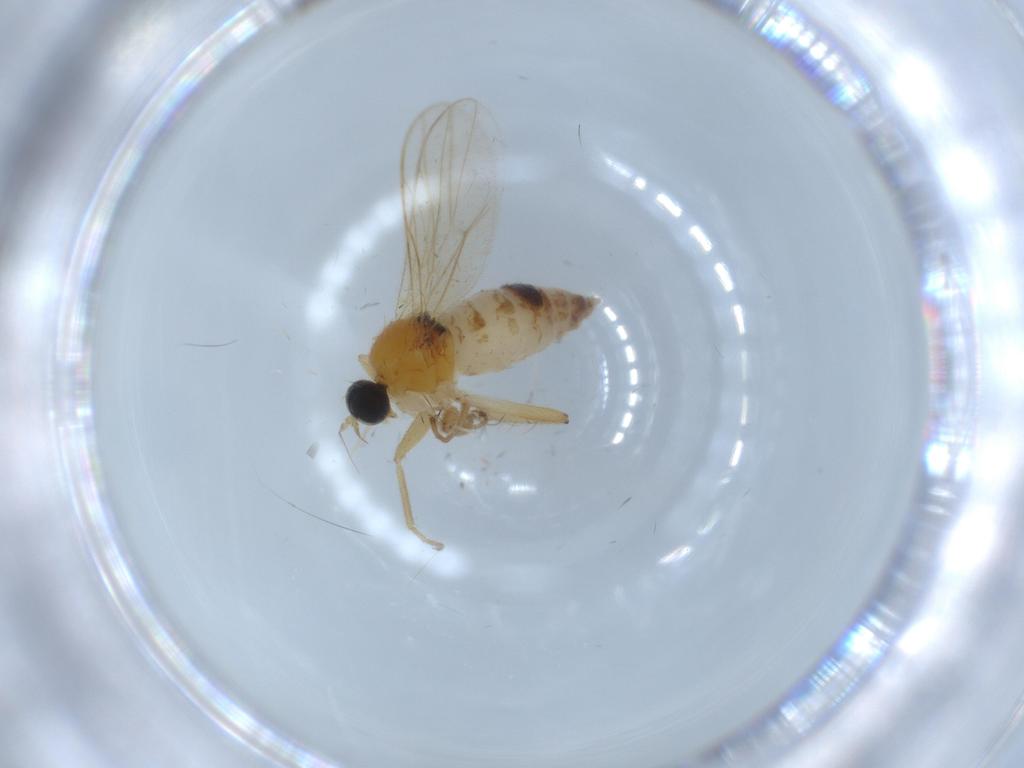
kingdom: Animalia
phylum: Arthropoda
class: Insecta
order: Diptera
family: Hybotidae
